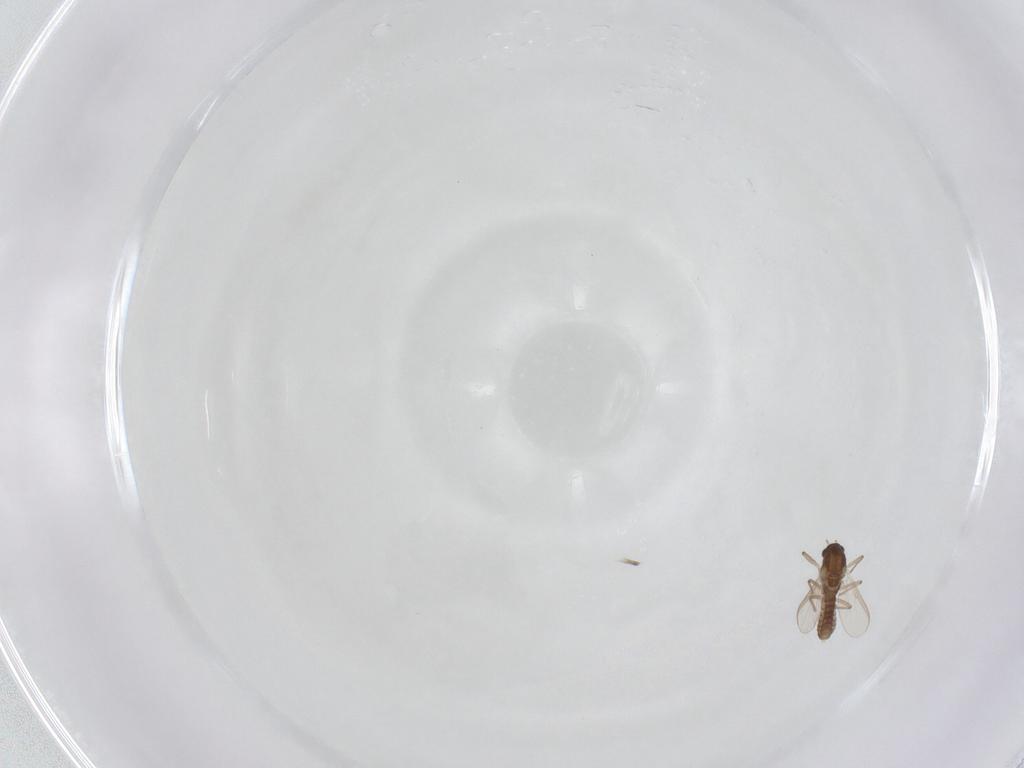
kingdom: Animalia
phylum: Arthropoda
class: Insecta
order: Diptera
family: Chironomidae
